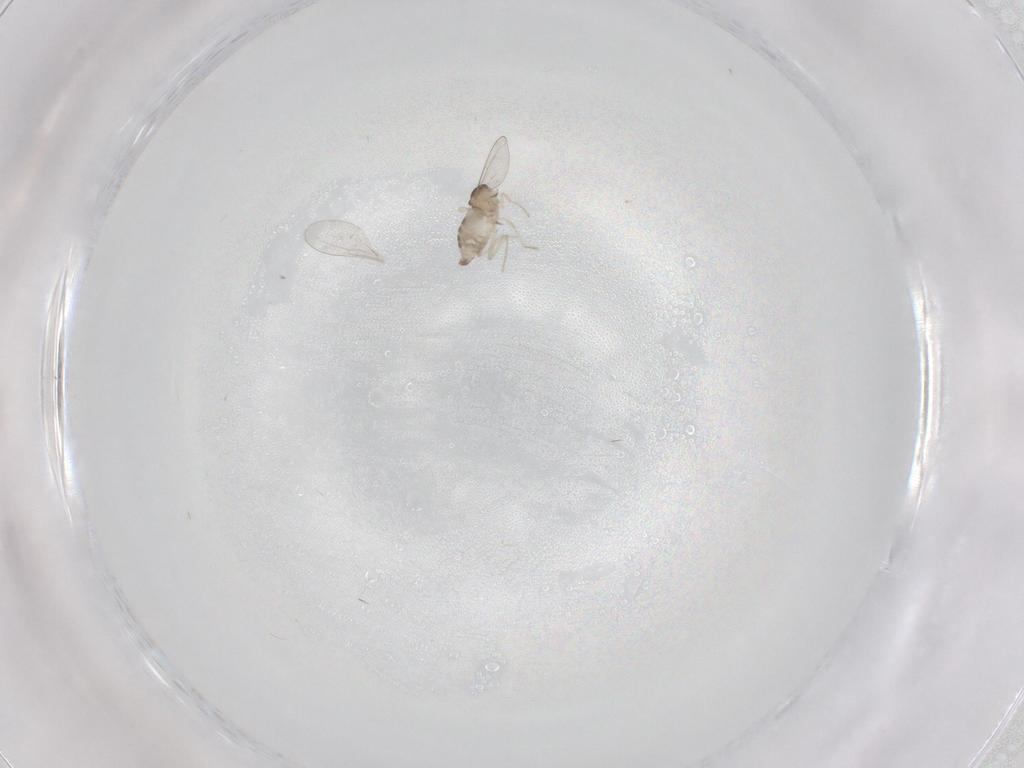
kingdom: Animalia
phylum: Arthropoda
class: Insecta
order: Diptera
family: Cecidomyiidae
